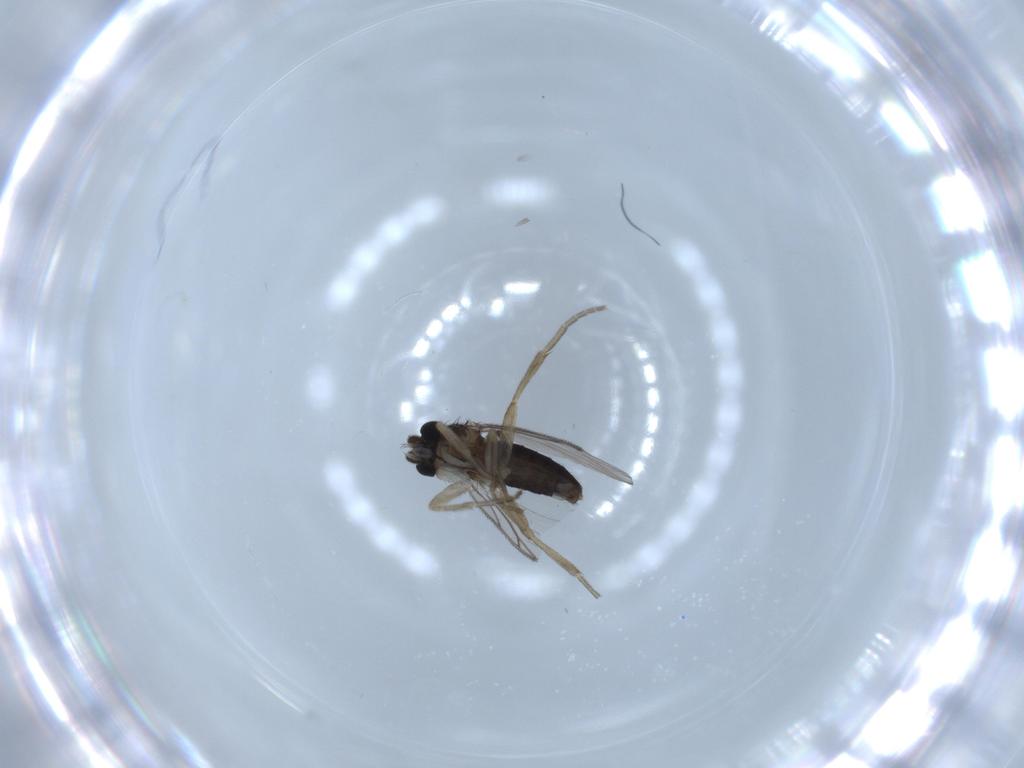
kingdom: Animalia
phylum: Arthropoda
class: Insecta
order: Diptera
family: Phoridae
